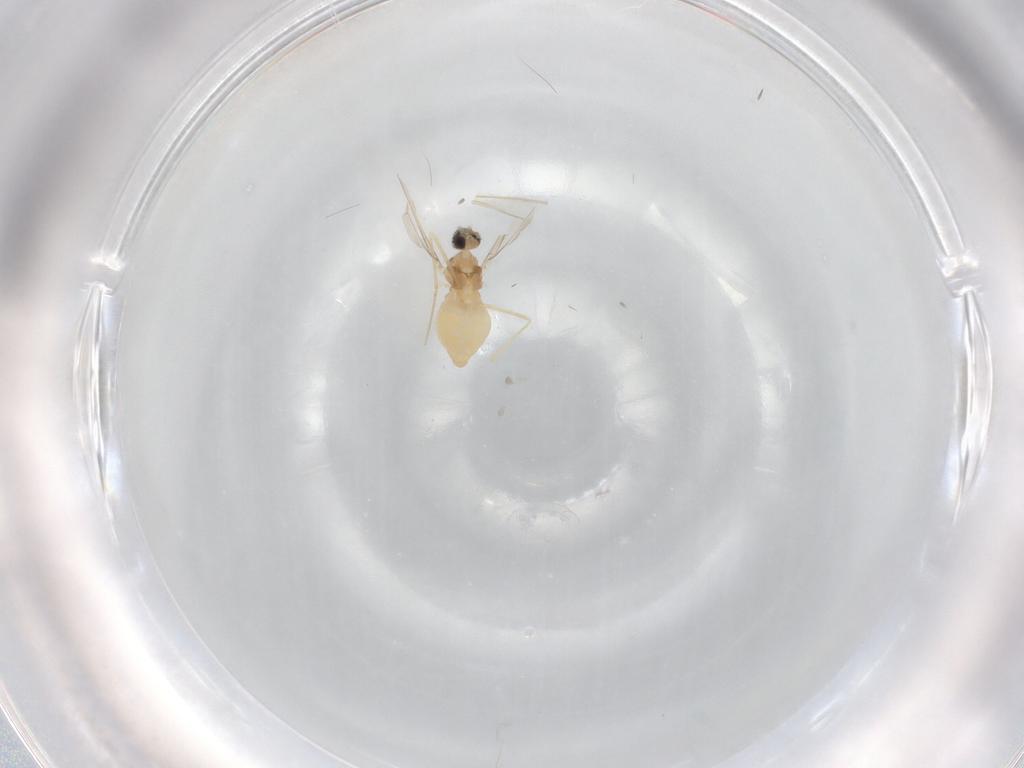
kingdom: Animalia
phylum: Arthropoda
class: Insecta
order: Diptera
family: Cecidomyiidae
